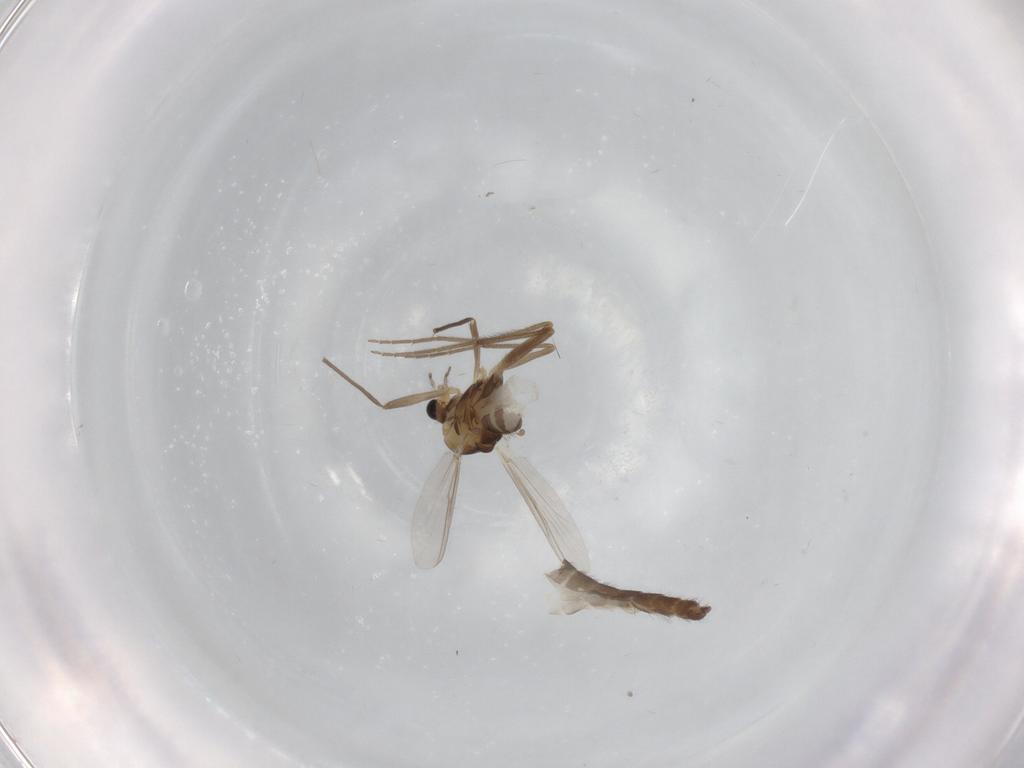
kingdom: Animalia
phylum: Arthropoda
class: Insecta
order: Diptera
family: Chironomidae
